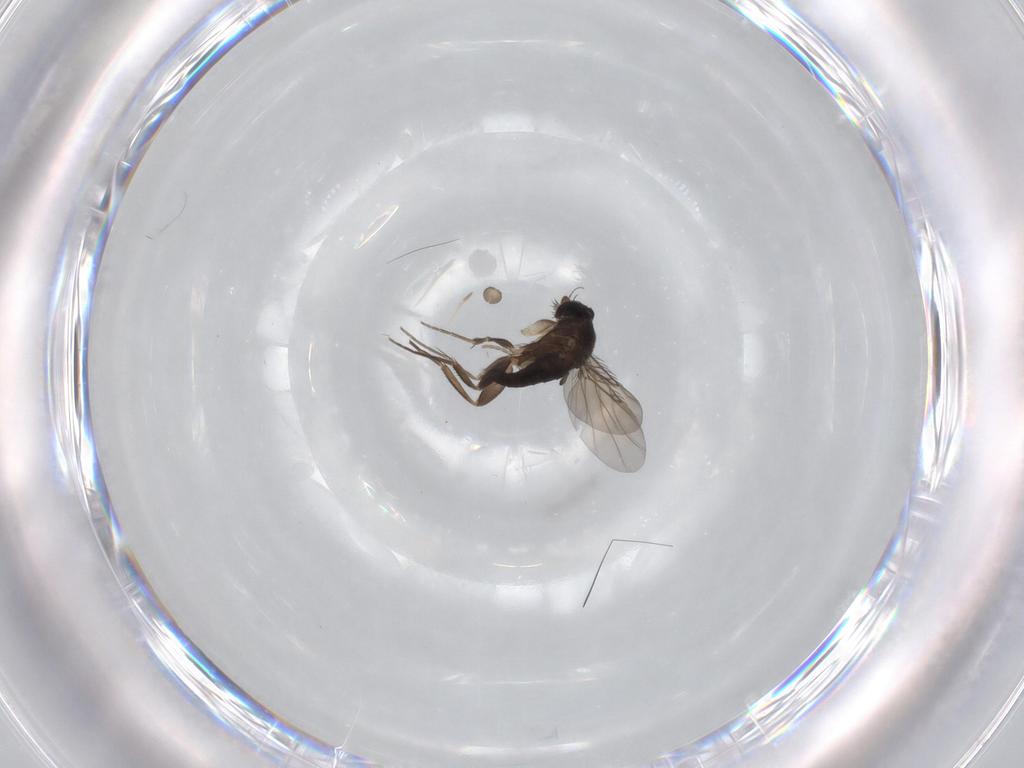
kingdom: Animalia
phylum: Arthropoda
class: Insecta
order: Diptera
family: Phoridae
